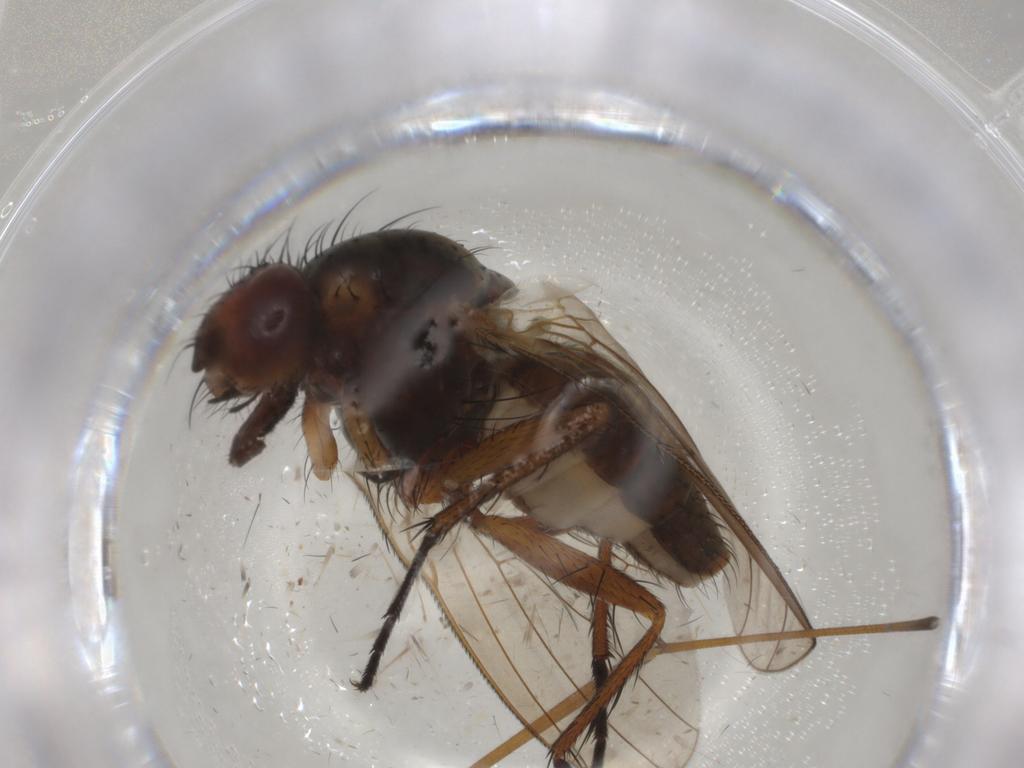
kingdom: Animalia
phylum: Arthropoda
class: Insecta
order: Diptera
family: Anthomyiidae
